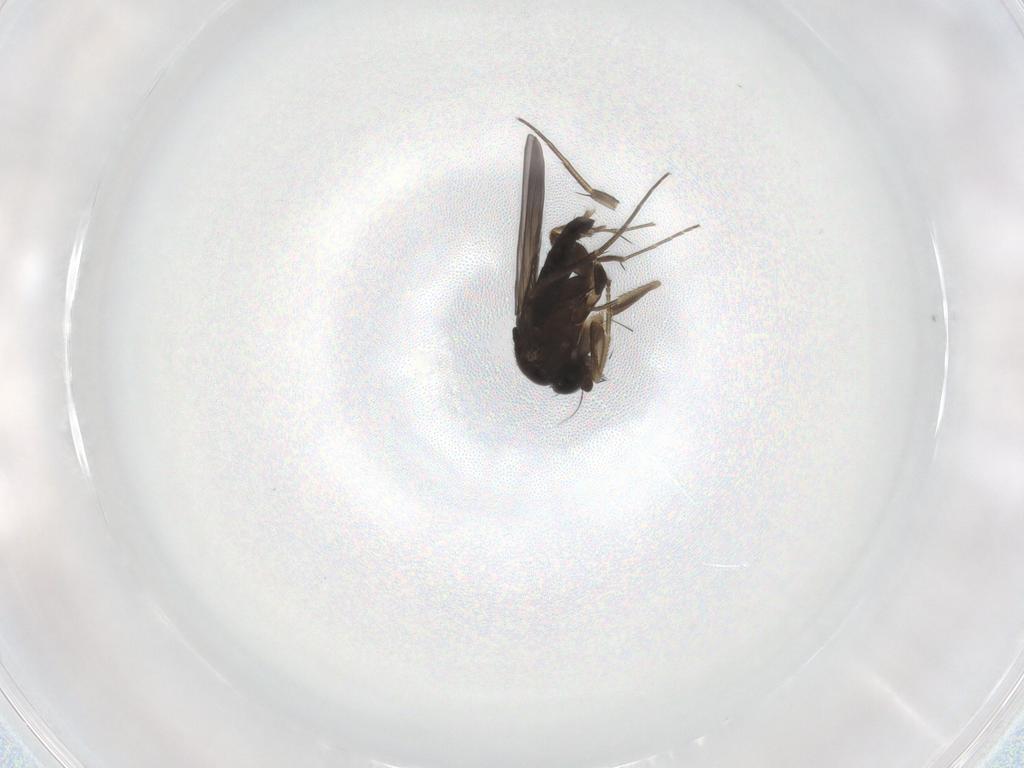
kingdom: Animalia
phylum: Arthropoda
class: Insecta
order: Diptera
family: Phoridae
